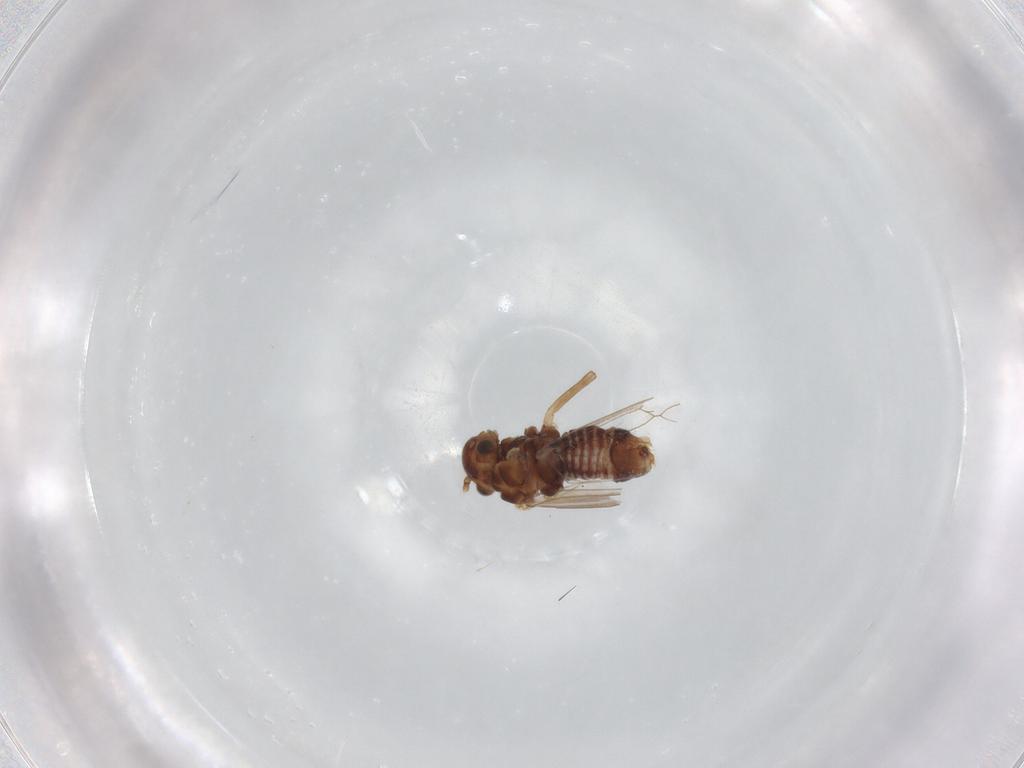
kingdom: Animalia
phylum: Arthropoda
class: Insecta
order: Psocodea
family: Lachesillidae
